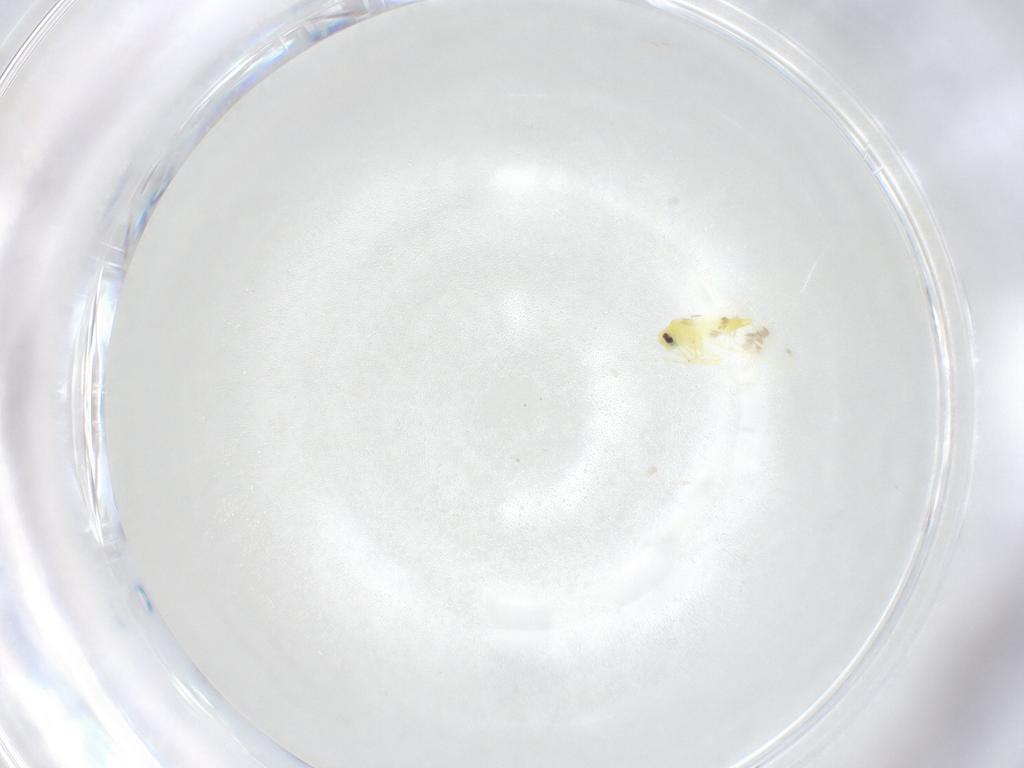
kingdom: Animalia
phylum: Arthropoda
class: Insecta
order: Hemiptera
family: Aleyrodidae
